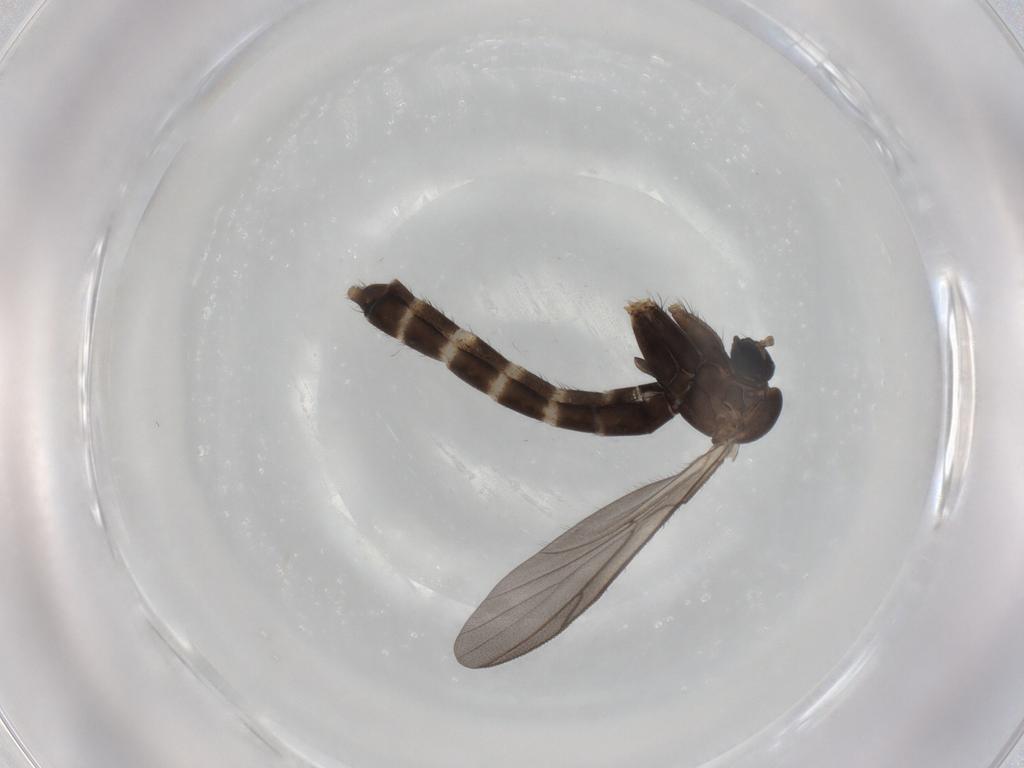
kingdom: Animalia
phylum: Arthropoda
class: Insecta
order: Diptera
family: Ditomyiidae
